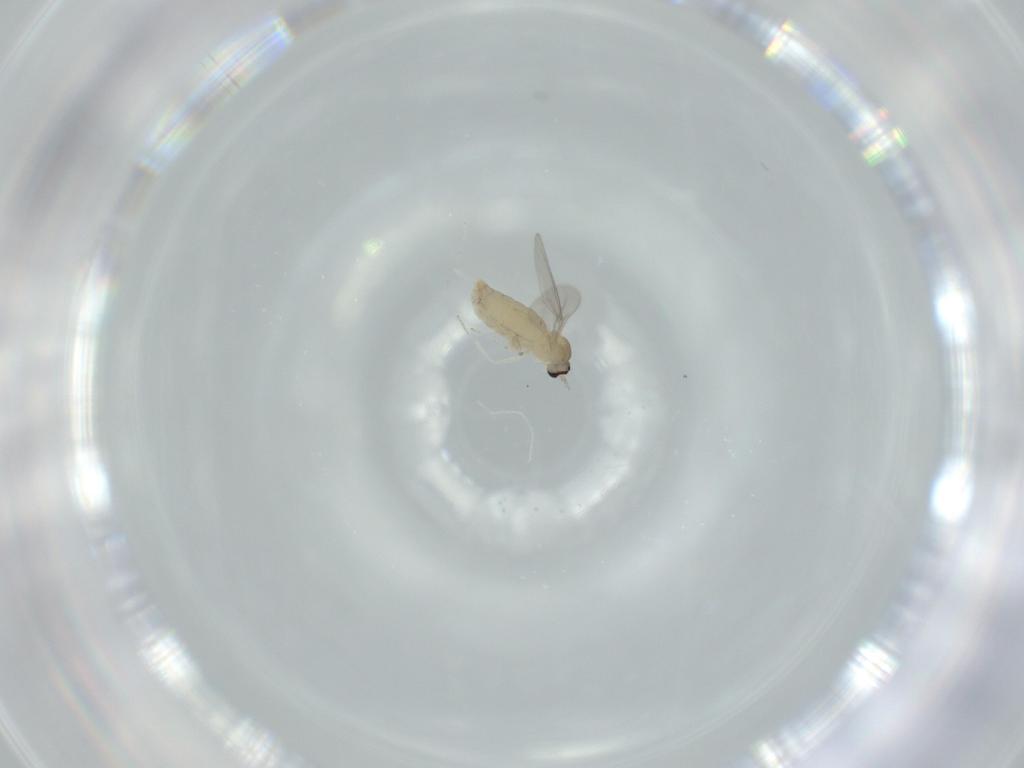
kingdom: Animalia
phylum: Arthropoda
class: Insecta
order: Diptera
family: Cecidomyiidae
